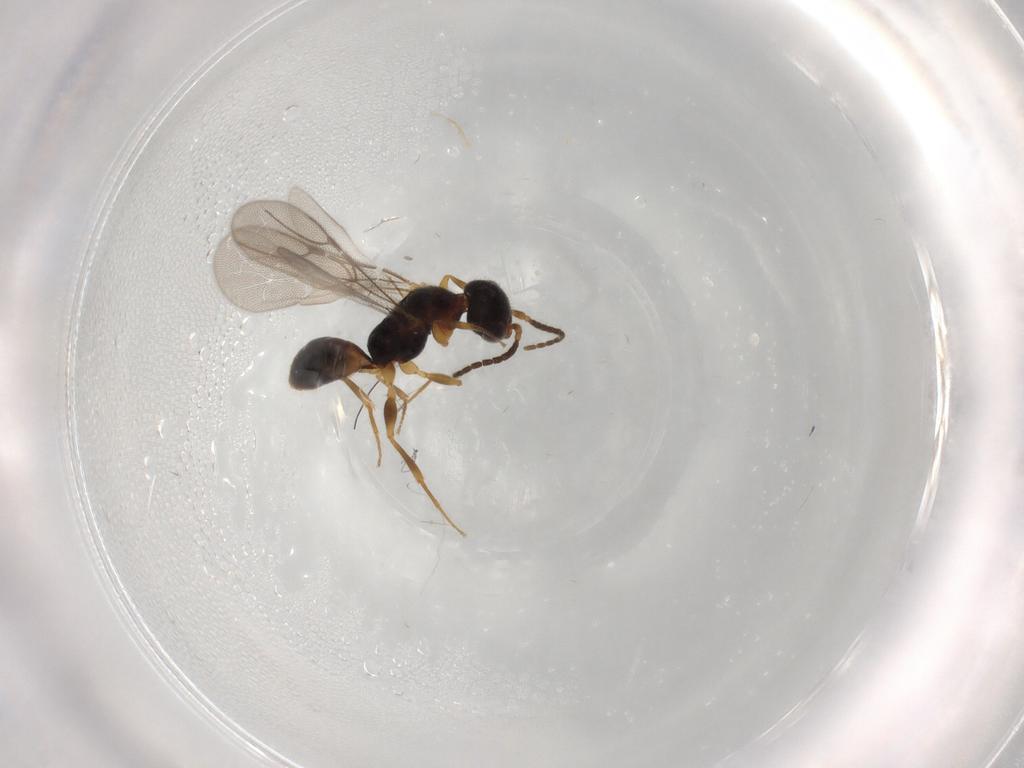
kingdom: Animalia
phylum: Arthropoda
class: Insecta
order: Hymenoptera
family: Bethylidae
